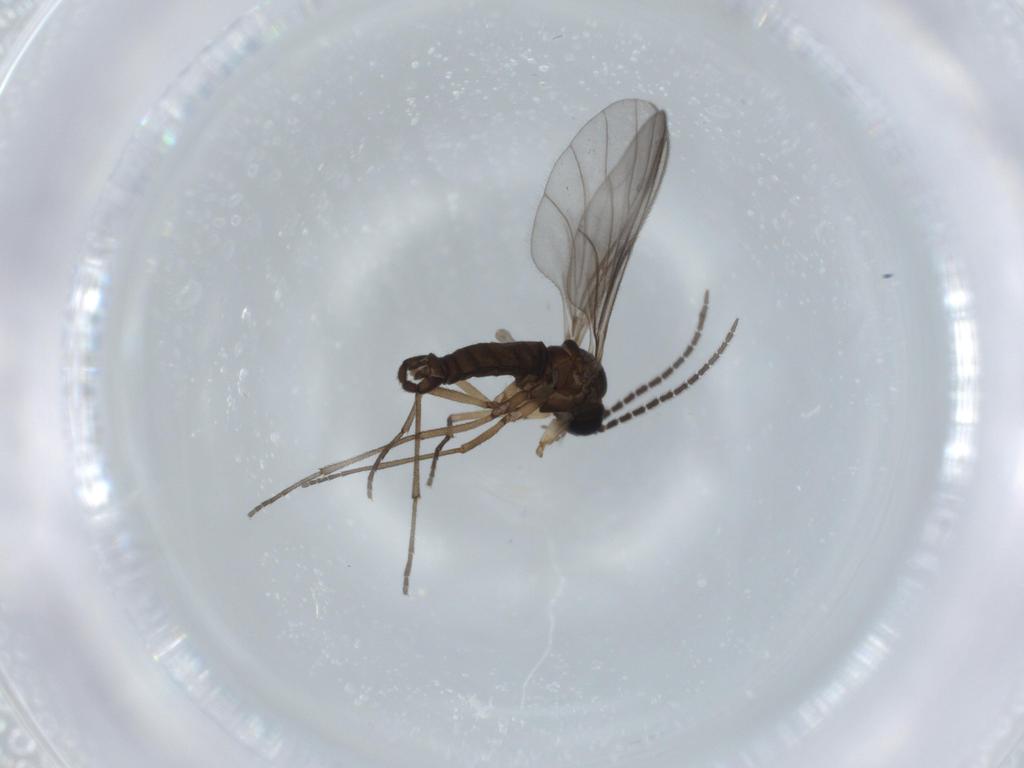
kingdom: Animalia
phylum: Arthropoda
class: Insecta
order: Diptera
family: Sciaridae
